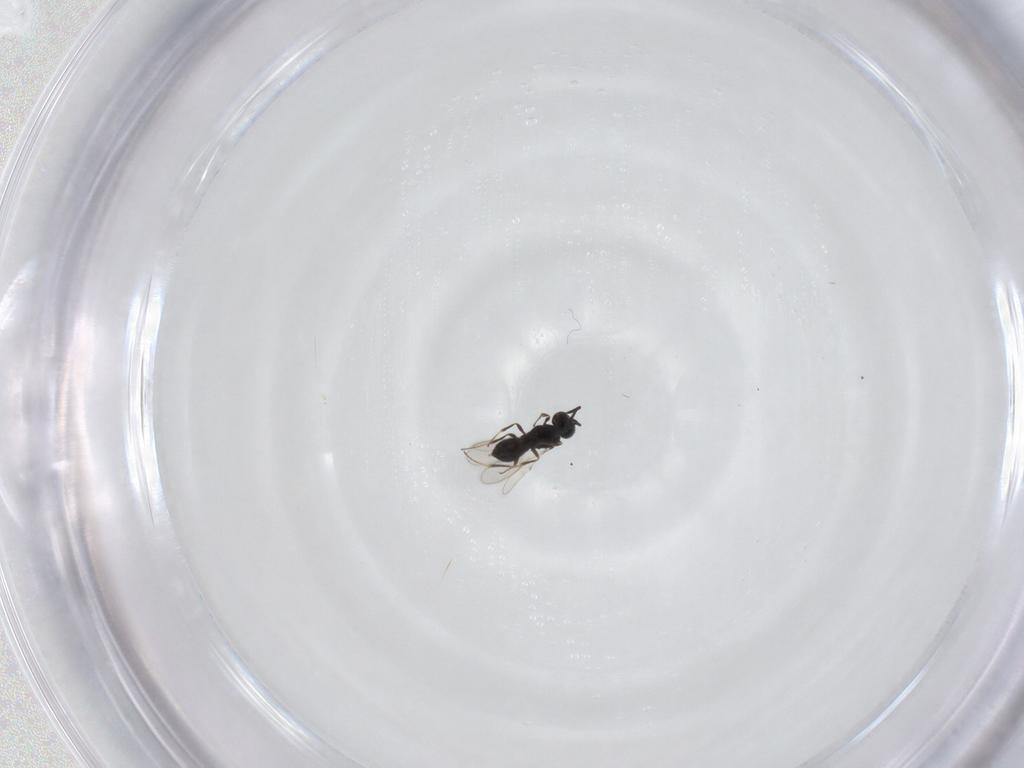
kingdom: Animalia
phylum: Arthropoda
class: Insecta
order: Hymenoptera
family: Scelionidae
